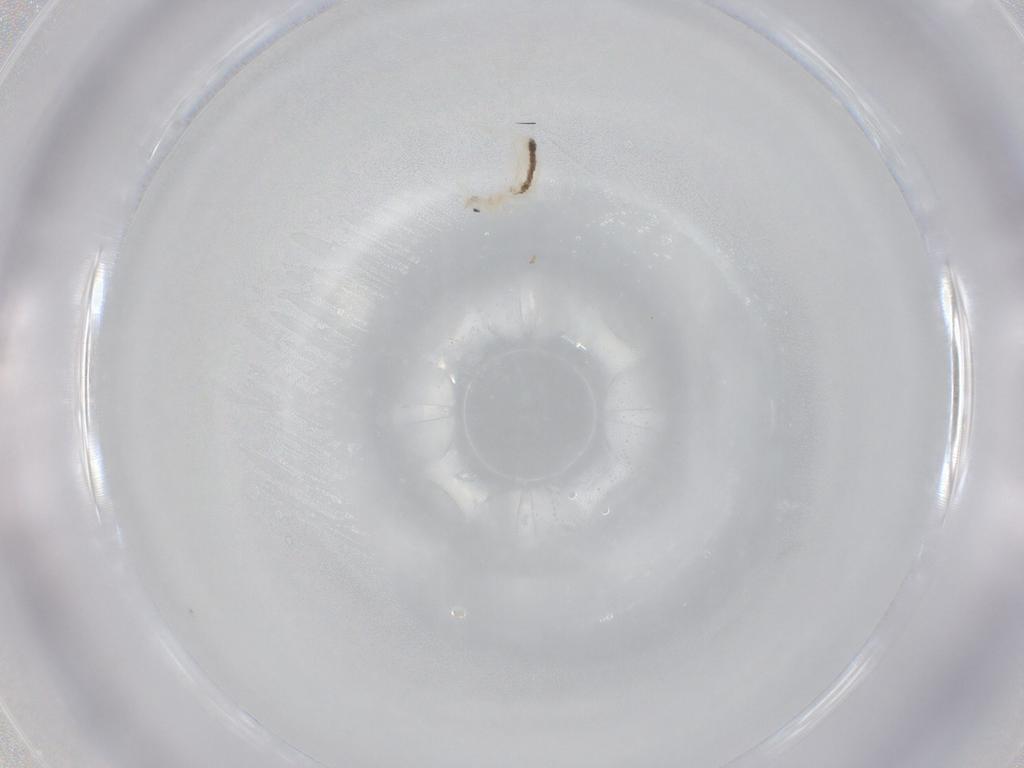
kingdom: Animalia
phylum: Arthropoda
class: Collembola
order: Entomobryomorpha
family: Entomobryidae
